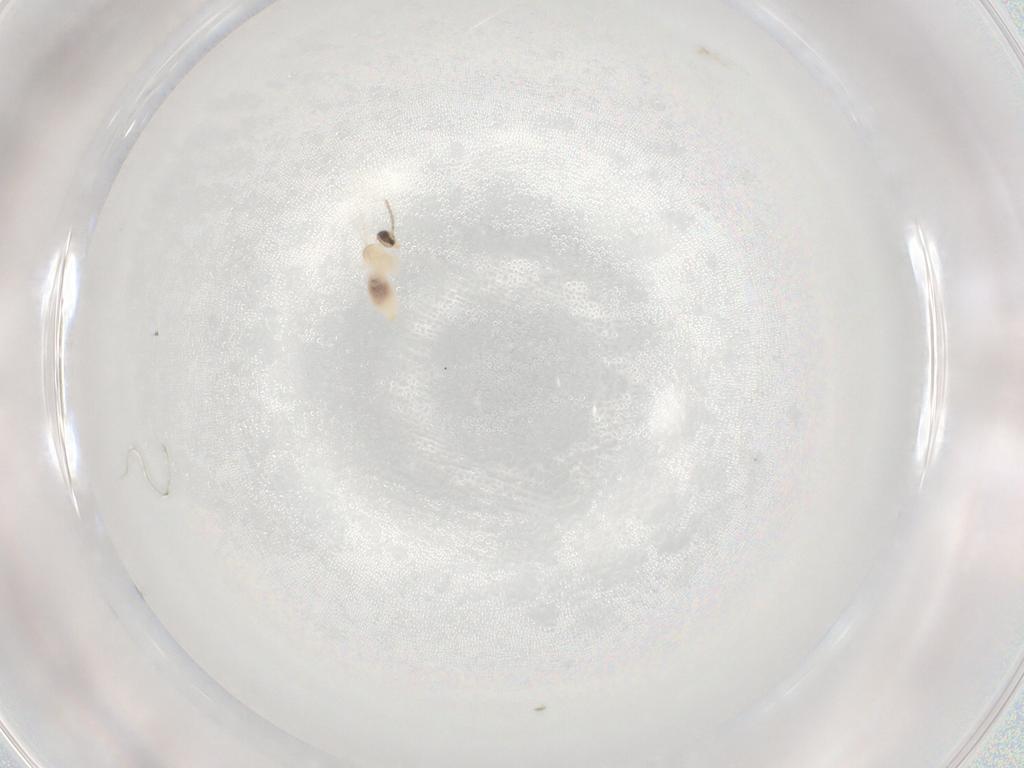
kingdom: Animalia
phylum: Arthropoda
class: Insecta
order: Diptera
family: Cecidomyiidae
